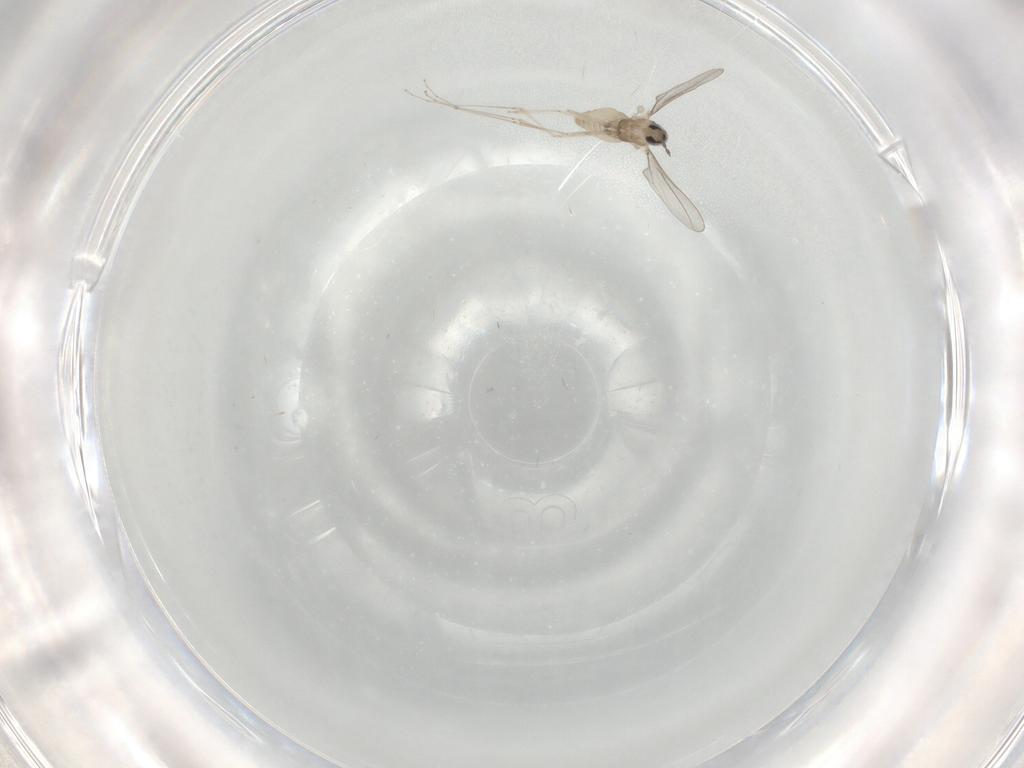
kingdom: Animalia
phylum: Arthropoda
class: Insecta
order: Diptera
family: Cecidomyiidae
